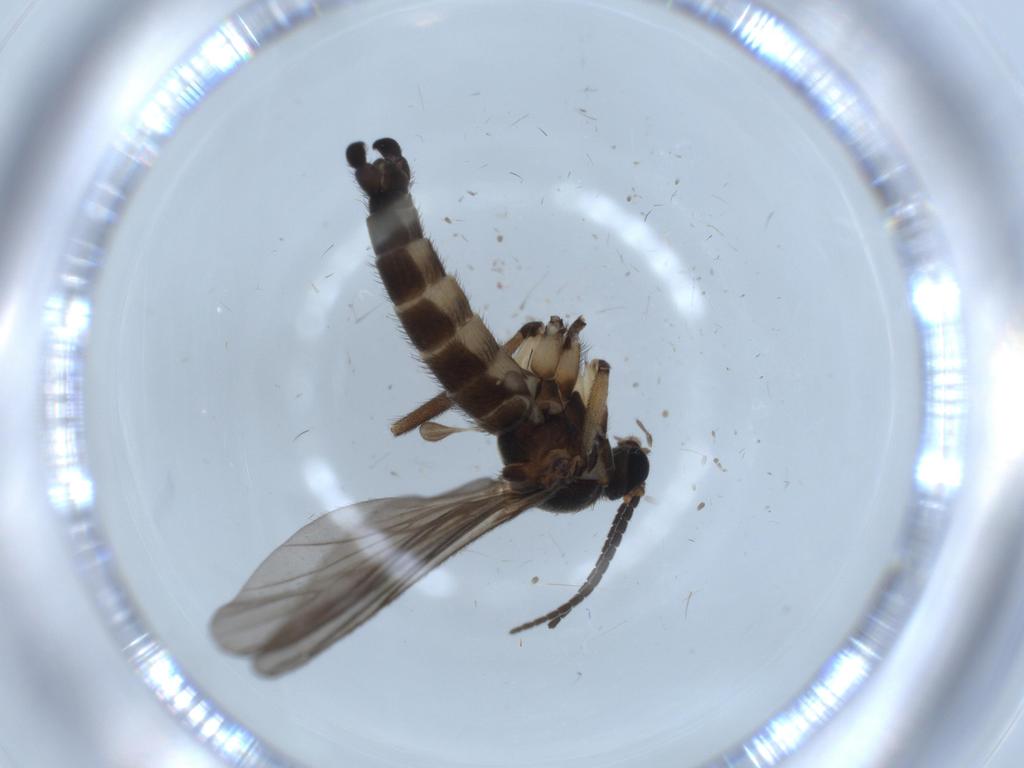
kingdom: Animalia
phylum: Arthropoda
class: Insecta
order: Diptera
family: Sciaridae
